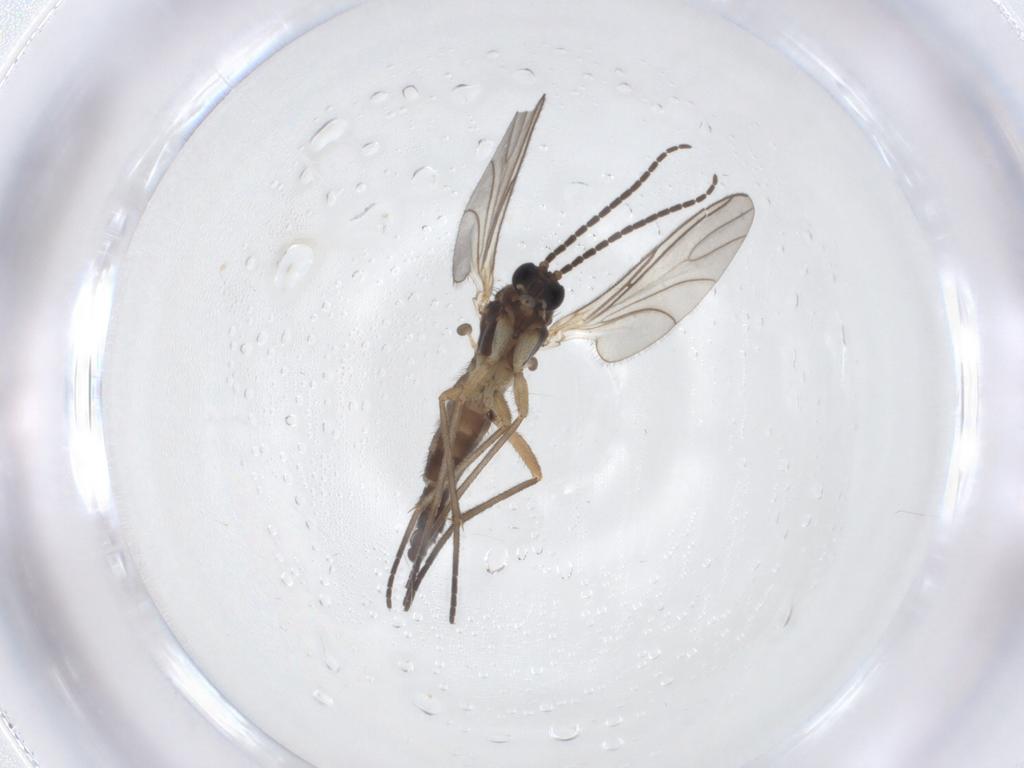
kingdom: Animalia
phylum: Arthropoda
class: Insecta
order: Diptera
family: Sciaridae
